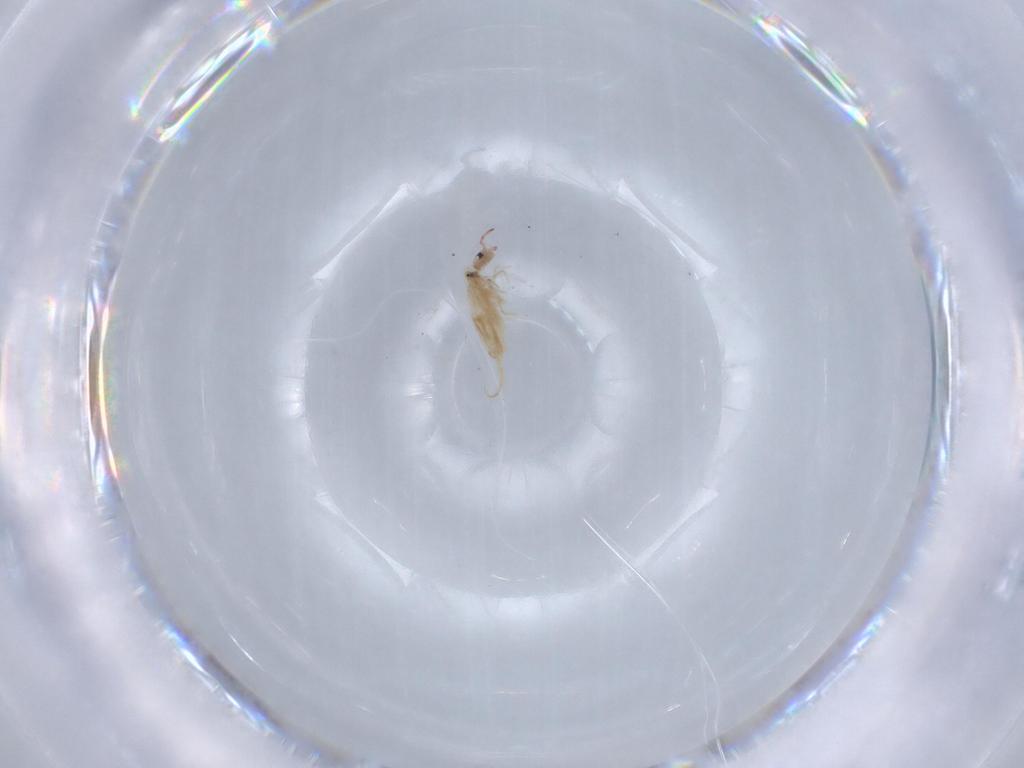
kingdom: Animalia
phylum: Arthropoda
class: Collembola
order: Entomobryomorpha
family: Entomobryidae
